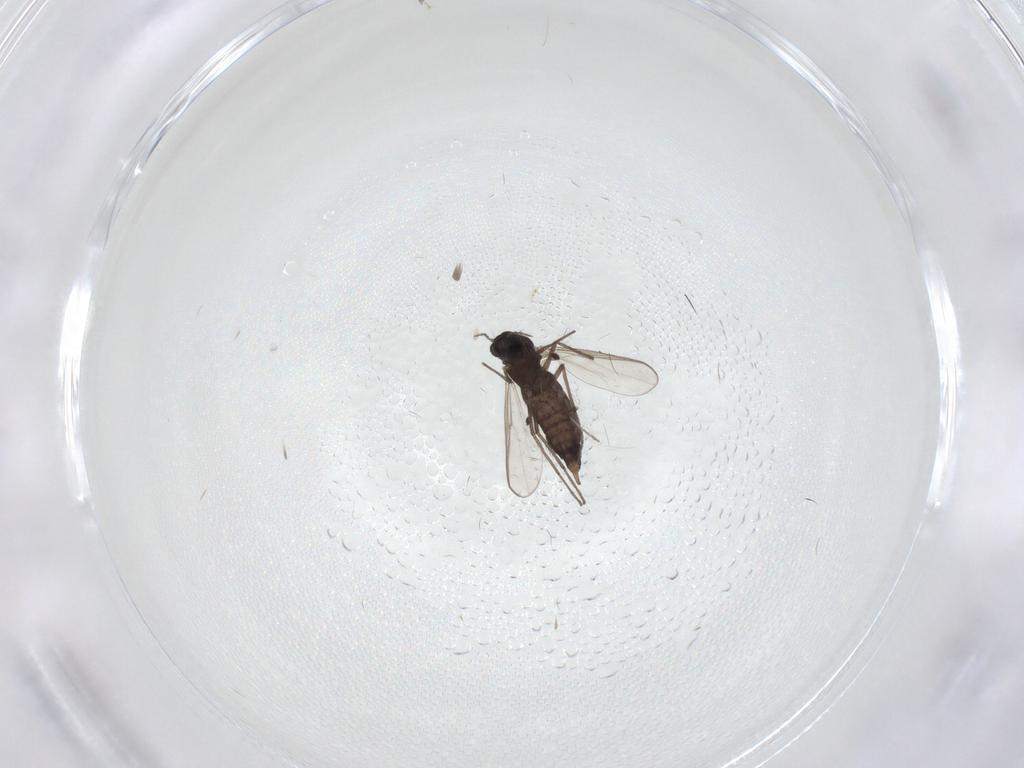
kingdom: Animalia
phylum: Arthropoda
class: Insecta
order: Diptera
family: Chironomidae
